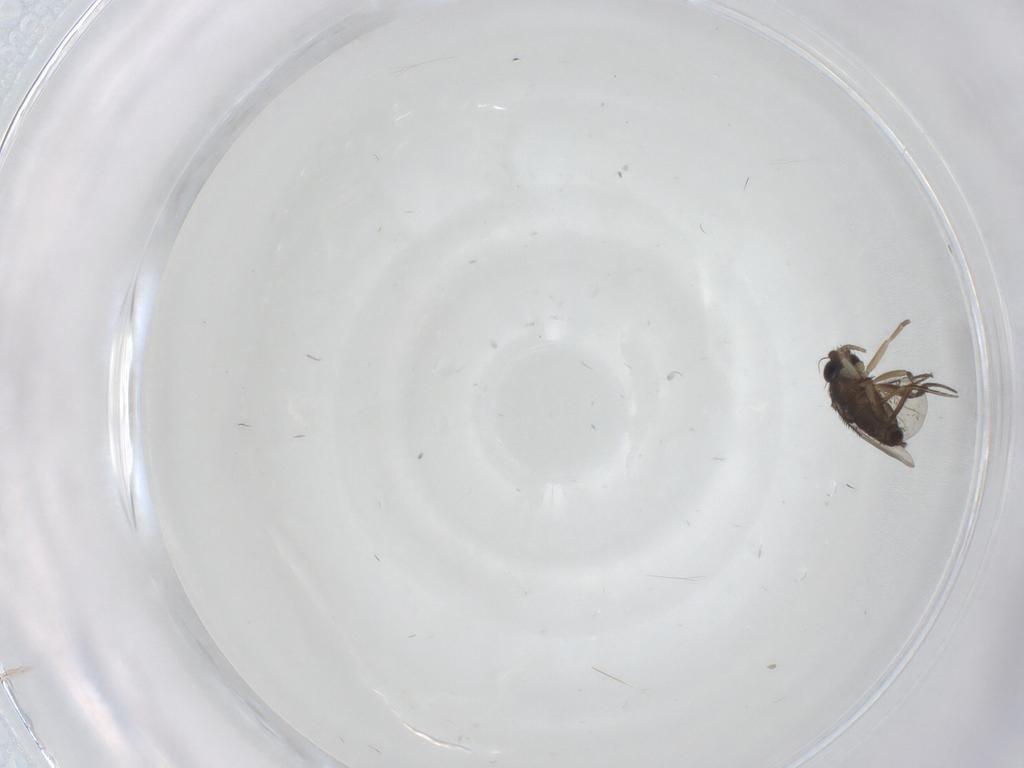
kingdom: Animalia
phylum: Arthropoda
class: Insecta
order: Diptera
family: Phoridae
